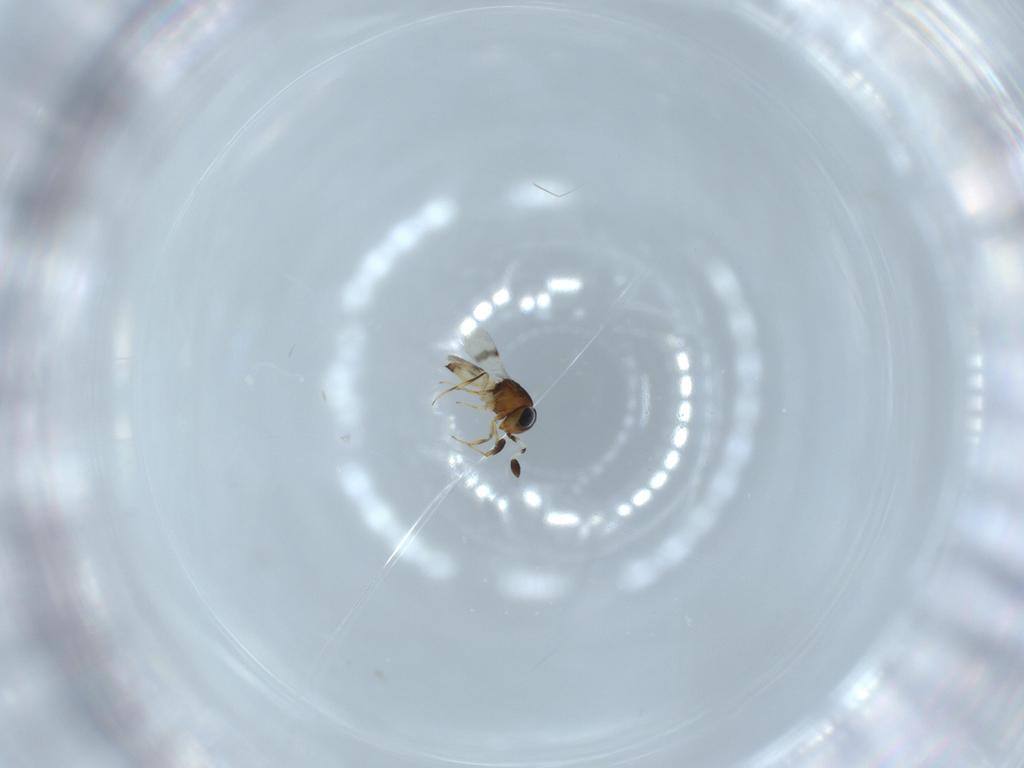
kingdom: Animalia
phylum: Arthropoda
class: Arachnida
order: Araneae
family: Pholcidae
